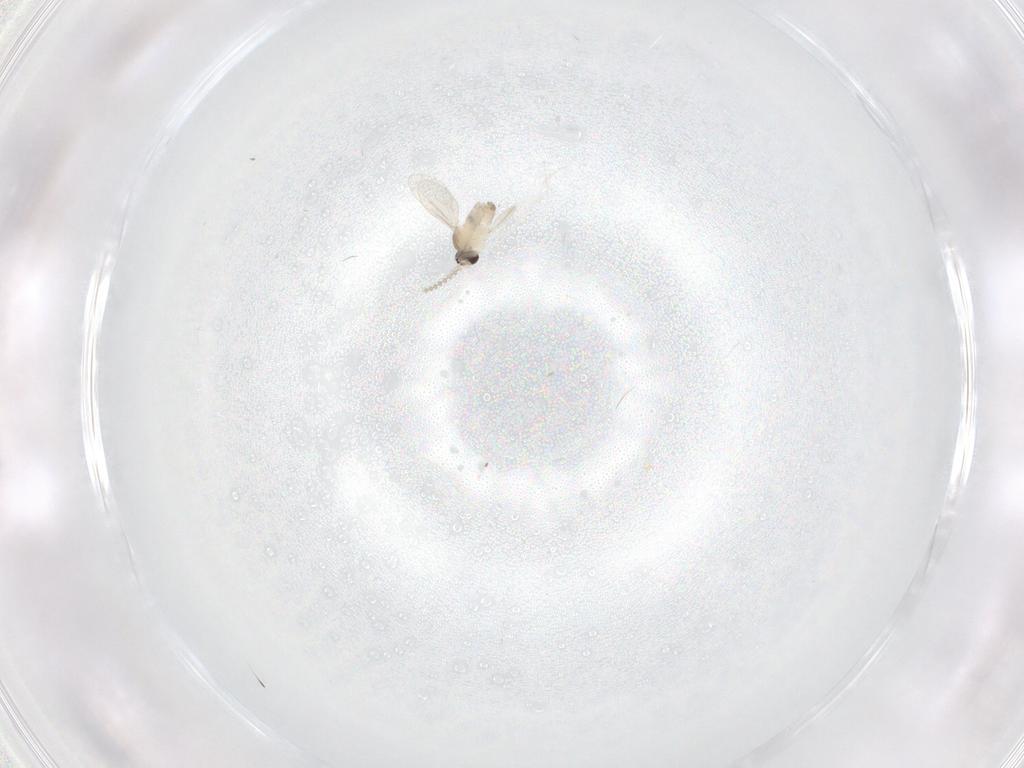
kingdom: Animalia
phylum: Arthropoda
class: Insecta
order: Diptera
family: Cecidomyiidae
